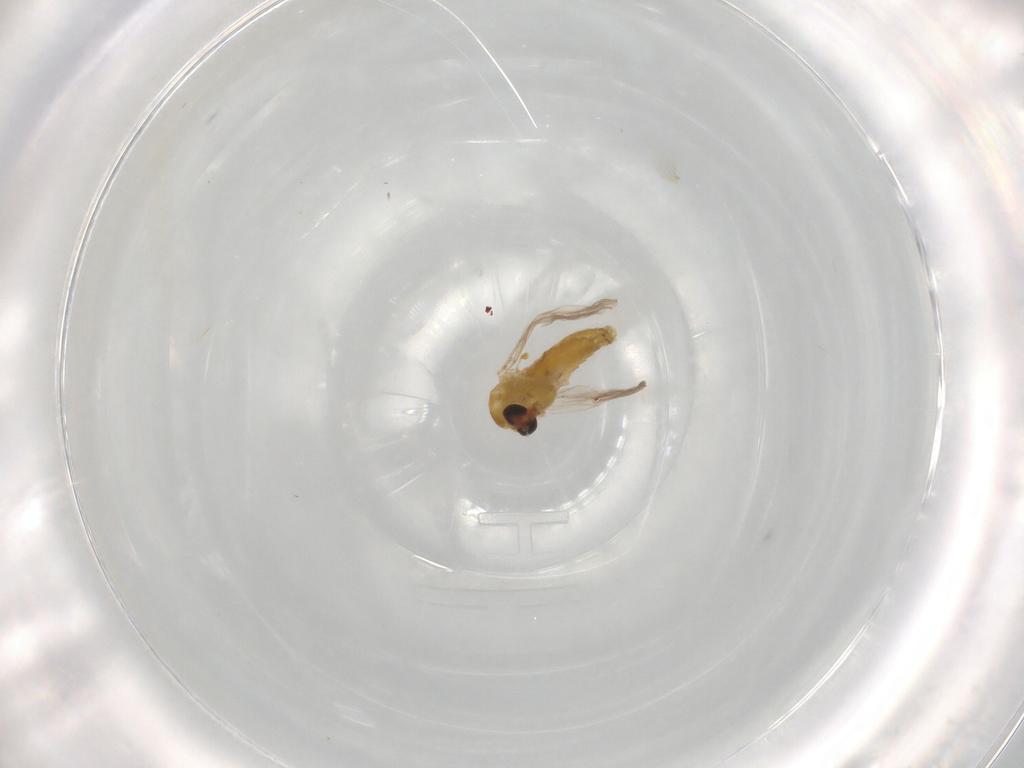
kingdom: Animalia
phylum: Arthropoda
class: Insecta
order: Diptera
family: Chironomidae
